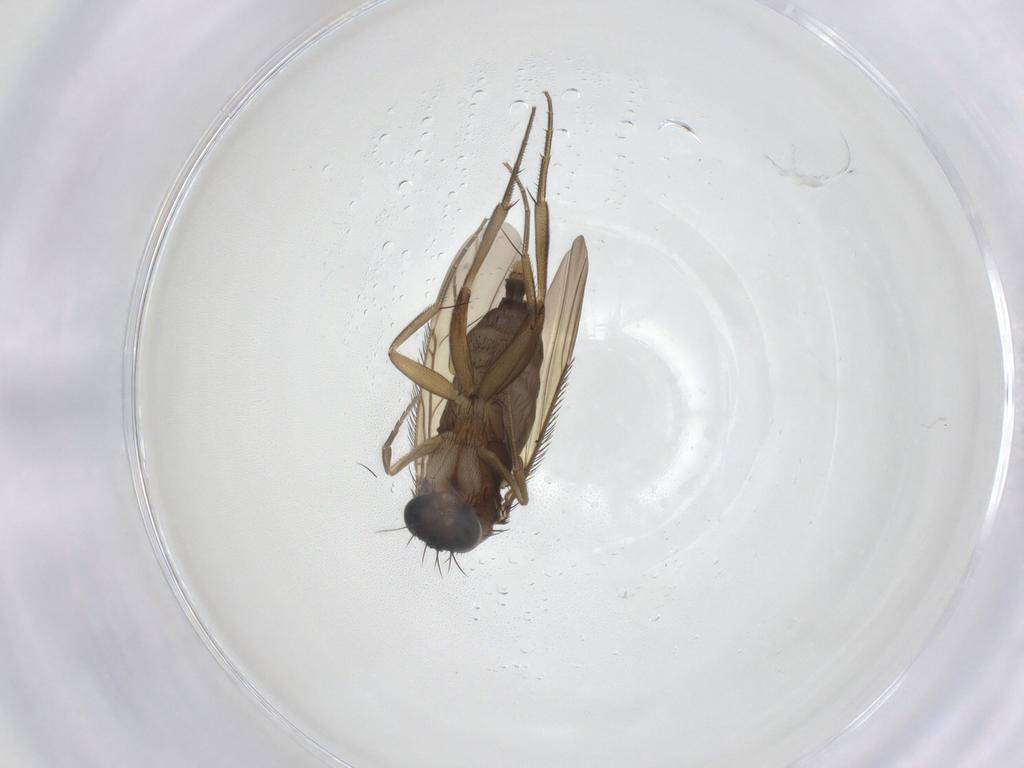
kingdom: Animalia
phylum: Arthropoda
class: Insecta
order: Diptera
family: Phoridae
